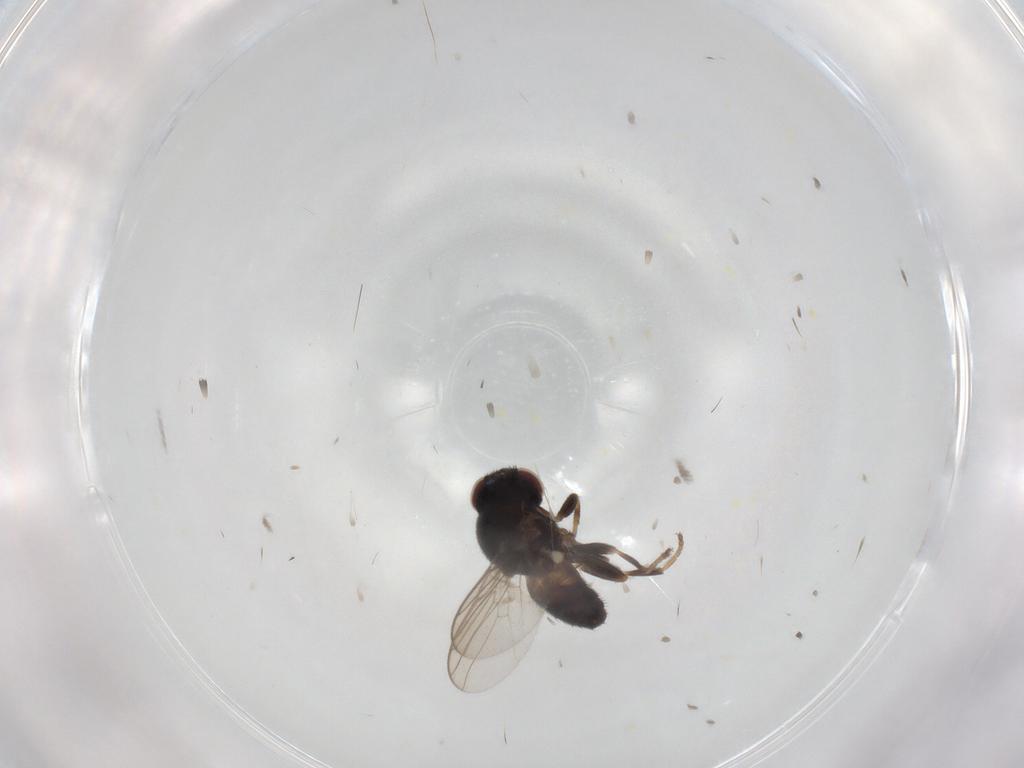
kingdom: Animalia
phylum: Arthropoda
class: Insecta
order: Diptera
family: Chloropidae
